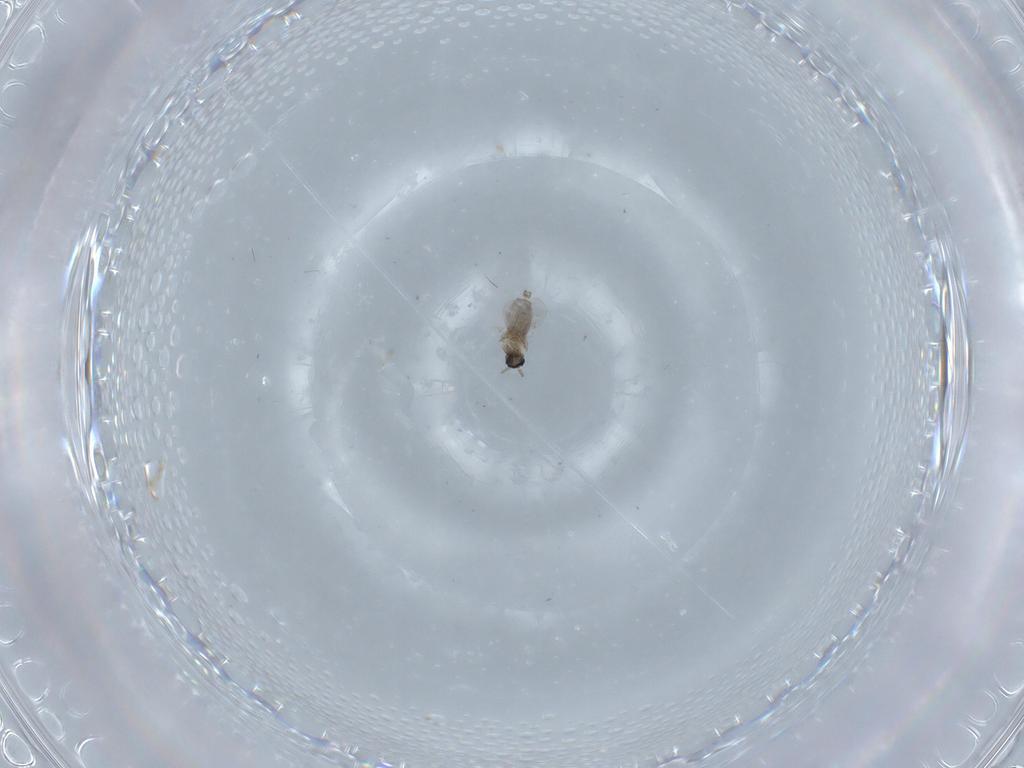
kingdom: Animalia
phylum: Arthropoda
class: Insecta
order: Diptera
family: Cecidomyiidae
